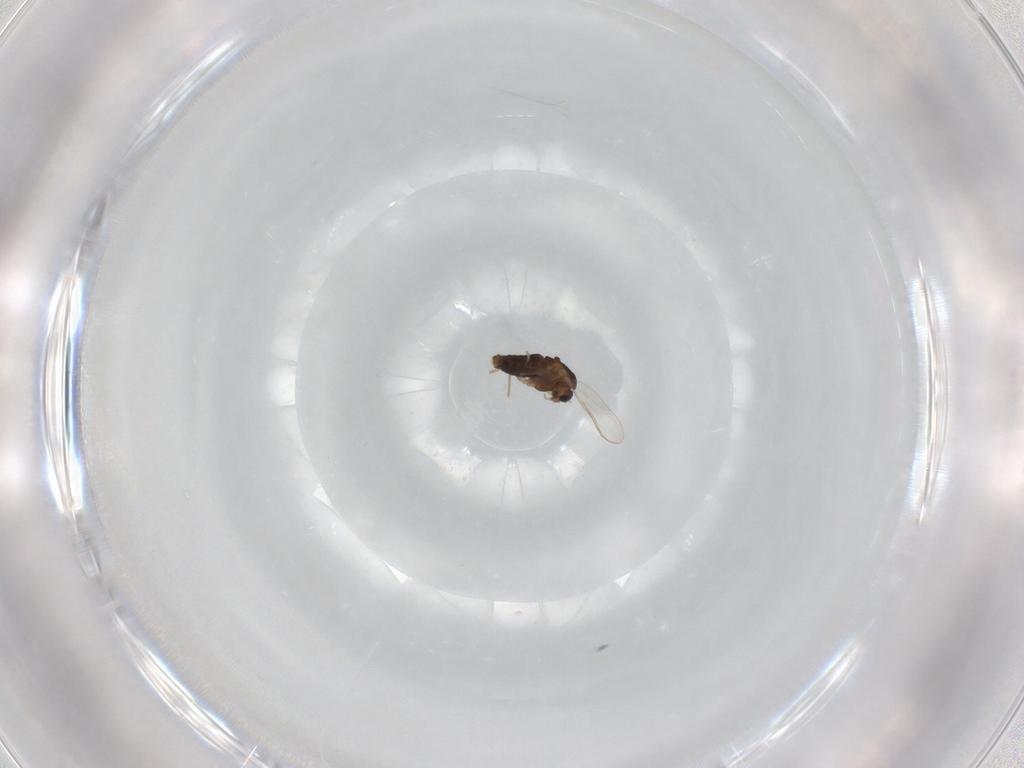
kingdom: Animalia
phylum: Arthropoda
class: Insecta
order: Diptera
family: Chironomidae
